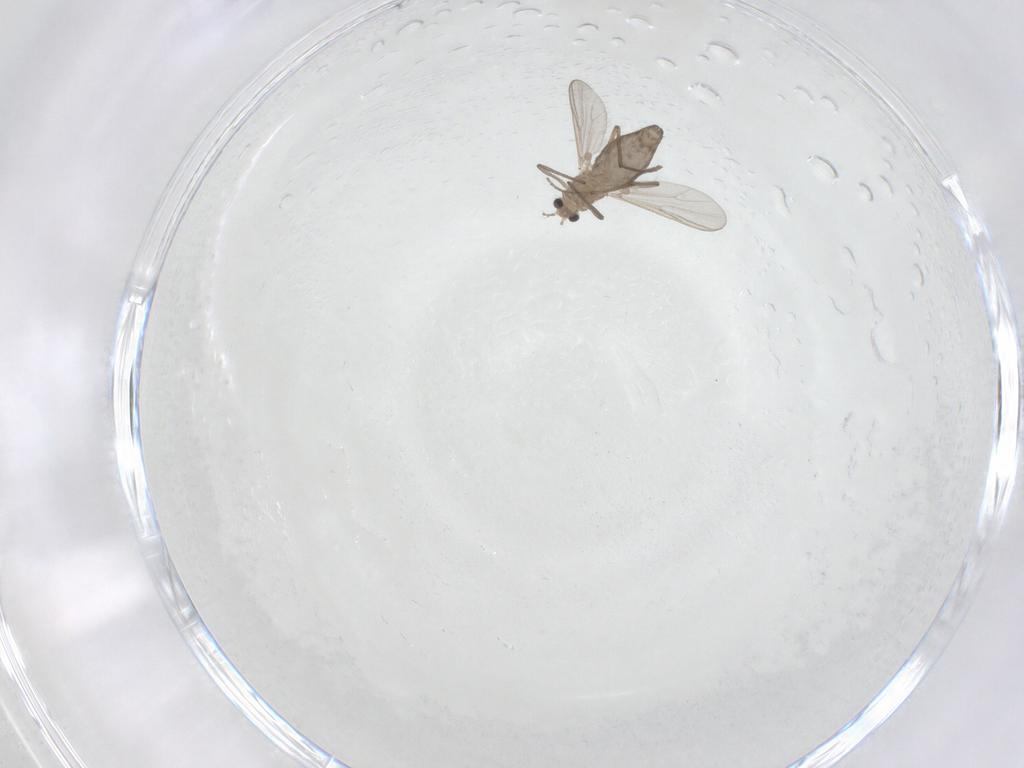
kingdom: Animalia
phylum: Arthropoda
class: Insecta
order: Diptera
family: Chironomidae
